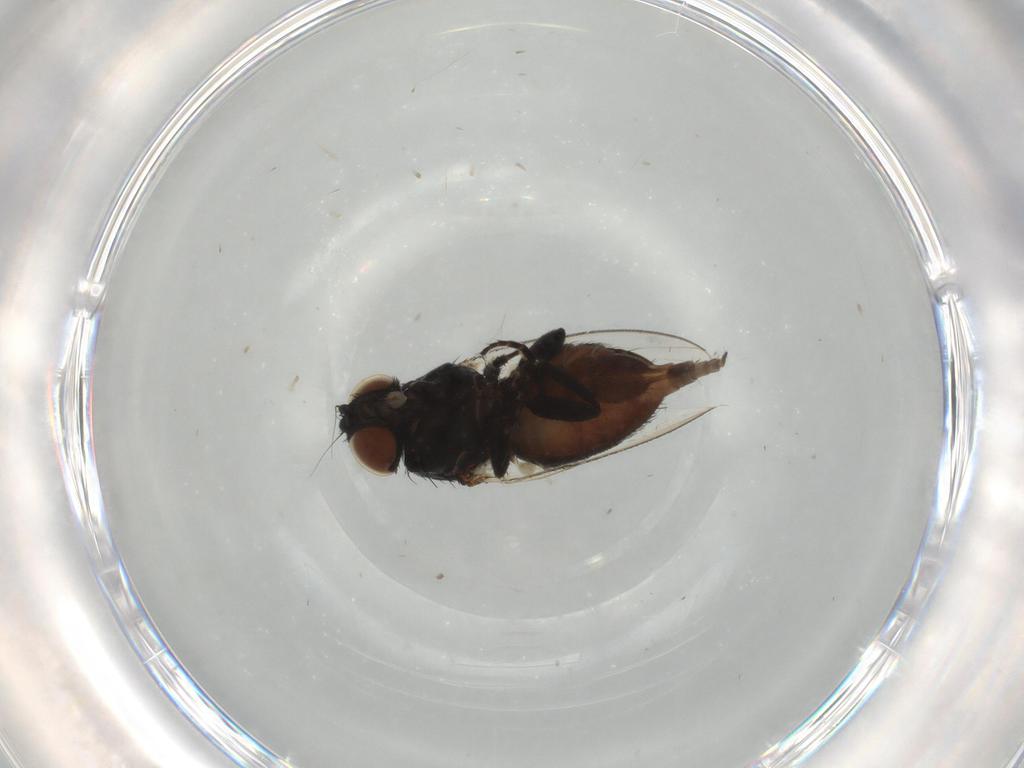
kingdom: Animalia
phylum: Arthropoda
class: Insecta
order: Diptera
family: Milichiidae
